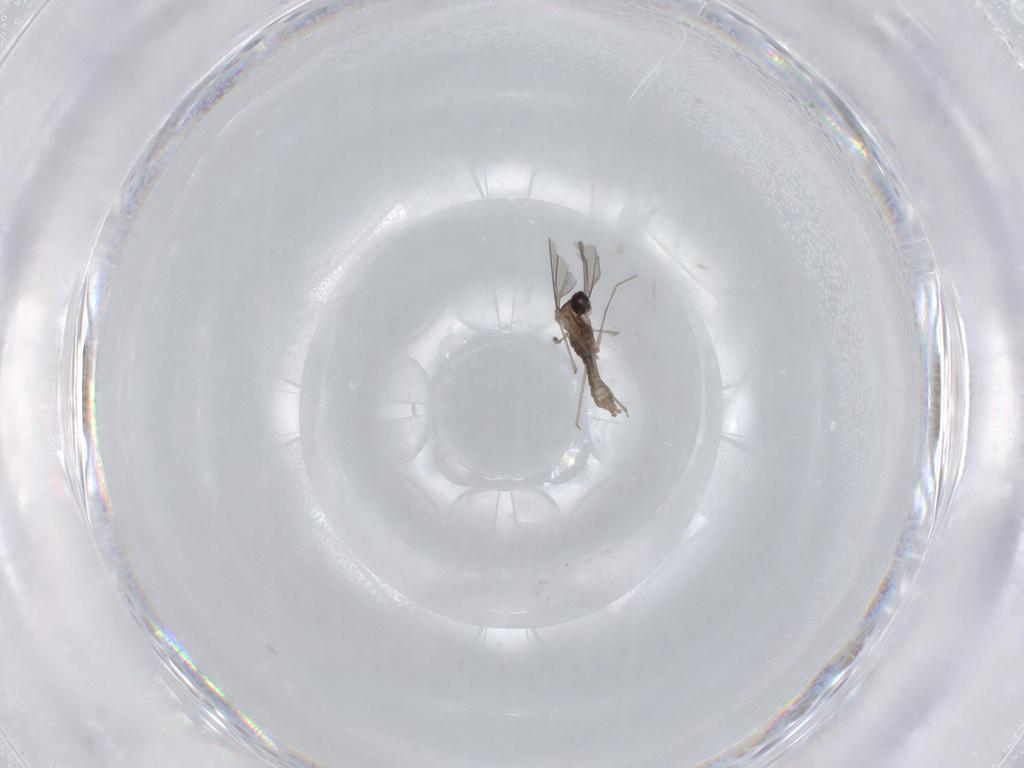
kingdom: Animalia
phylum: Arthropoda
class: Insecta
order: Diptera
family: Cecidomyiidae
